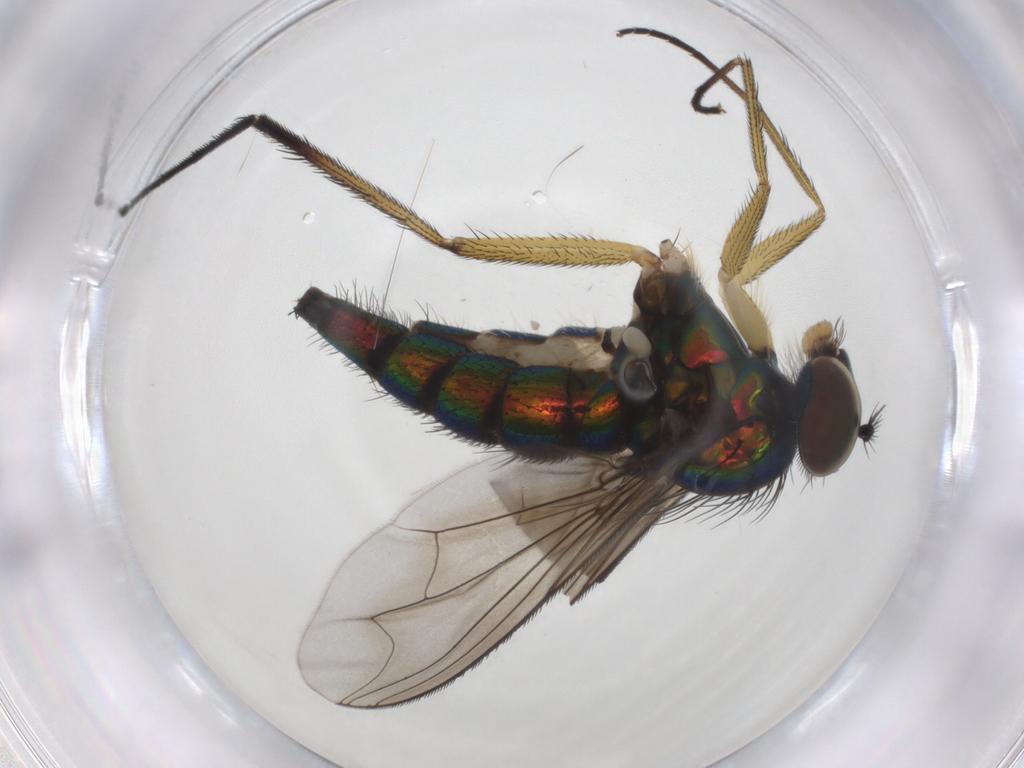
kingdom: Animalia
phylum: Arthropoda
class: Insecta
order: Diptera
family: Dolichopodidae
